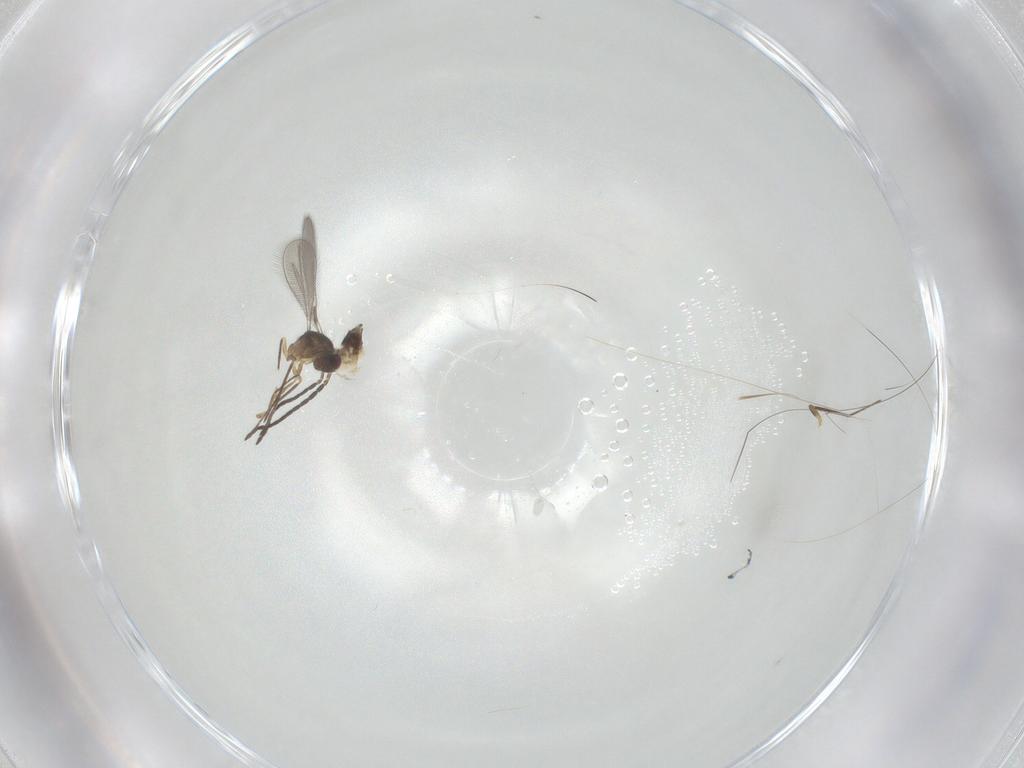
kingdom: Animalia
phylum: Arthropoda
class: Insecta
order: Hymenoptera
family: Mymaridae
